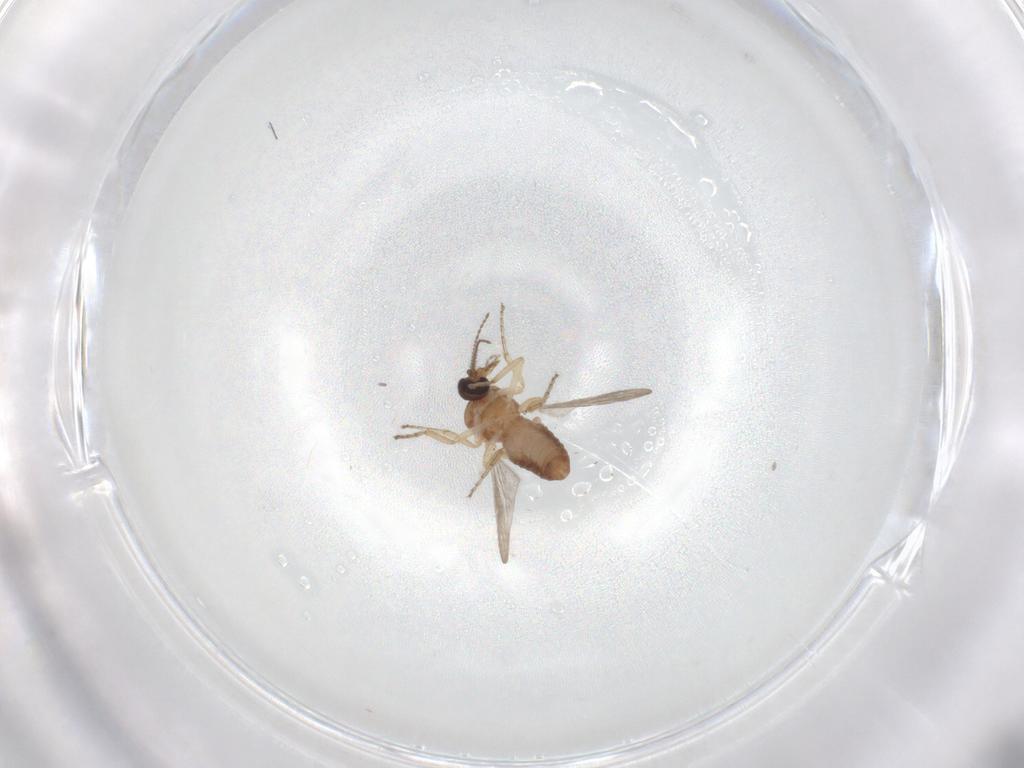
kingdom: Animalia
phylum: Arthropoda
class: Insecta
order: Diptera
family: Ceratopogonidae
